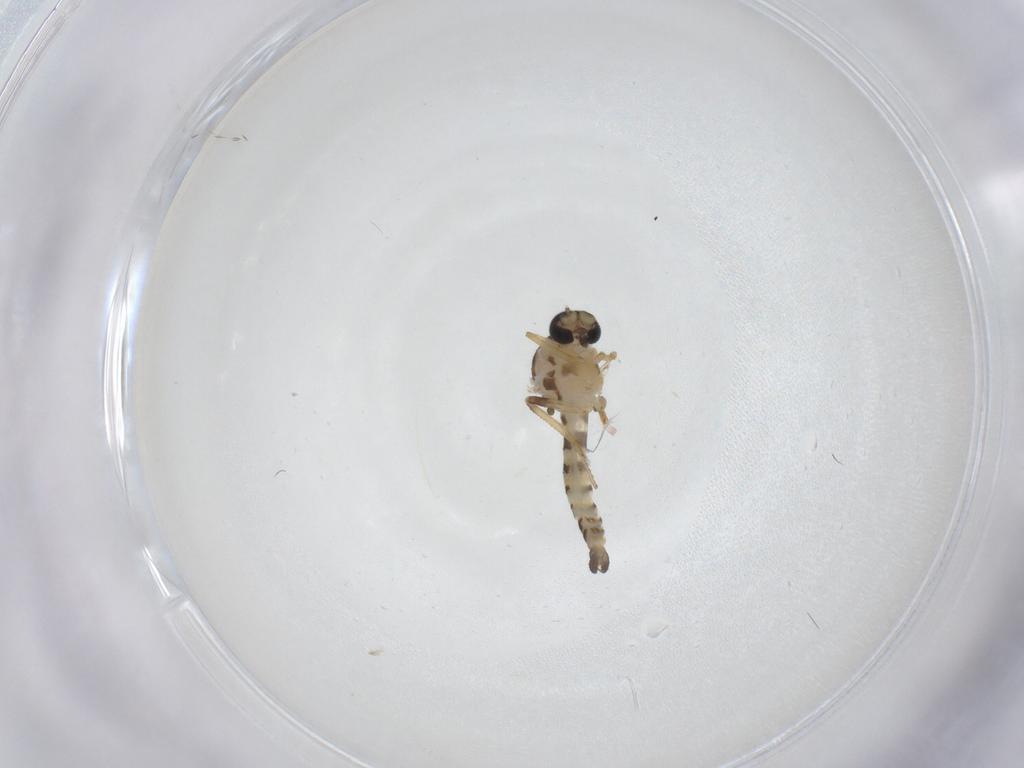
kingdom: Animalia
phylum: Arthropoda
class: Insecta
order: Diptera
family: Ceratopogonidae
